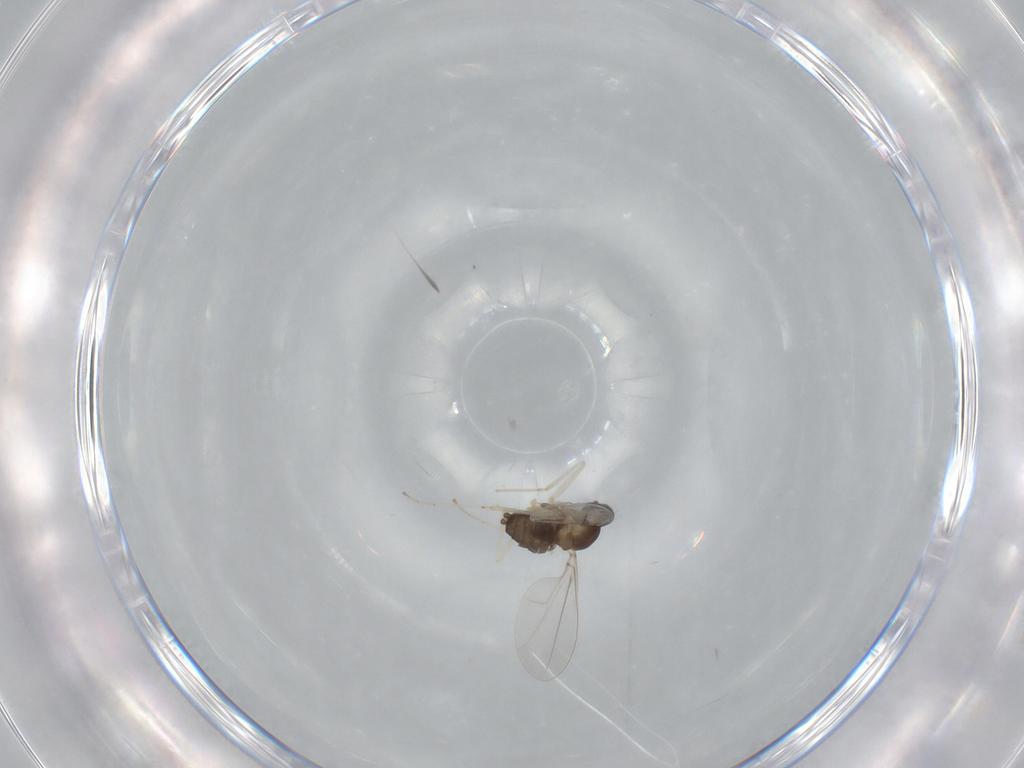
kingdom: Animalia
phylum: Arthropoda
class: Insecta
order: Diptera
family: Cecidomyiidae
